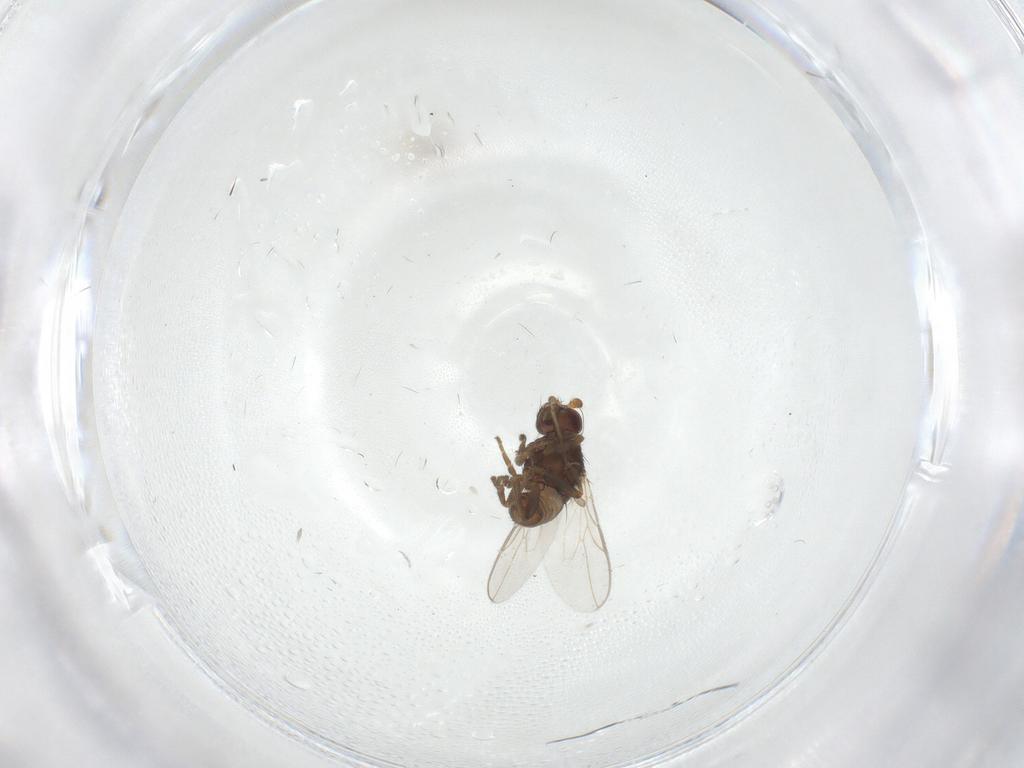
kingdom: Animalia
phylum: Arthropoda
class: Insecta
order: Diptera
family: Sphaeroceridae
